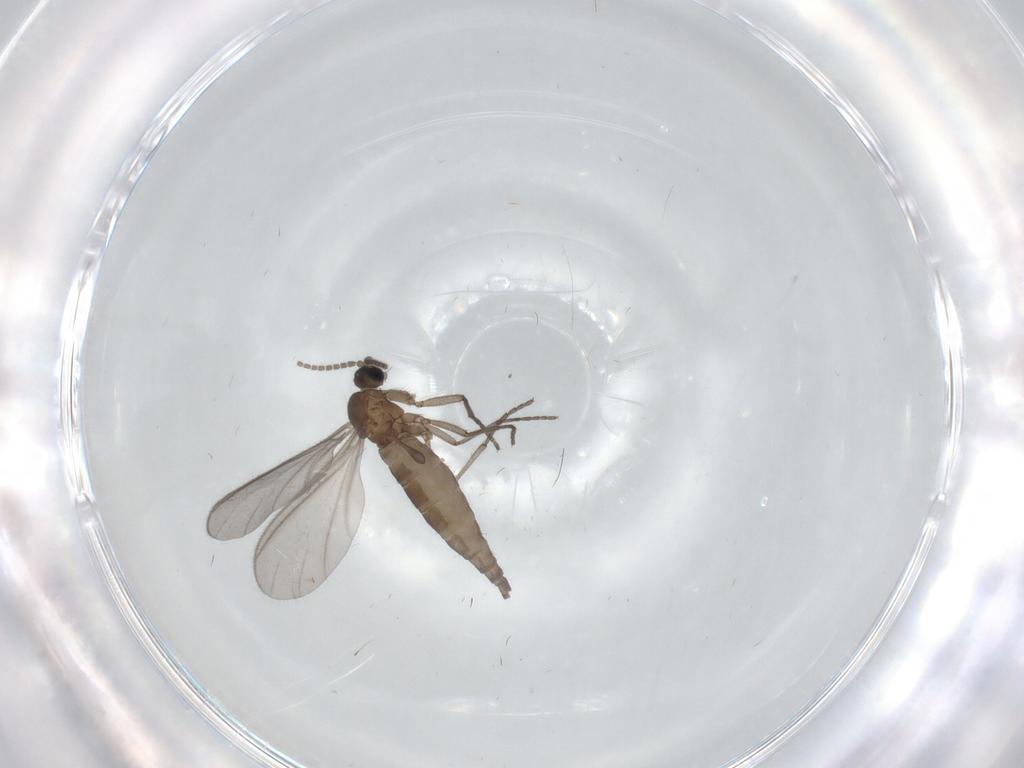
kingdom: Animalia
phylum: Arthropoda
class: Insecta
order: Diptera
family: Sciaridae
